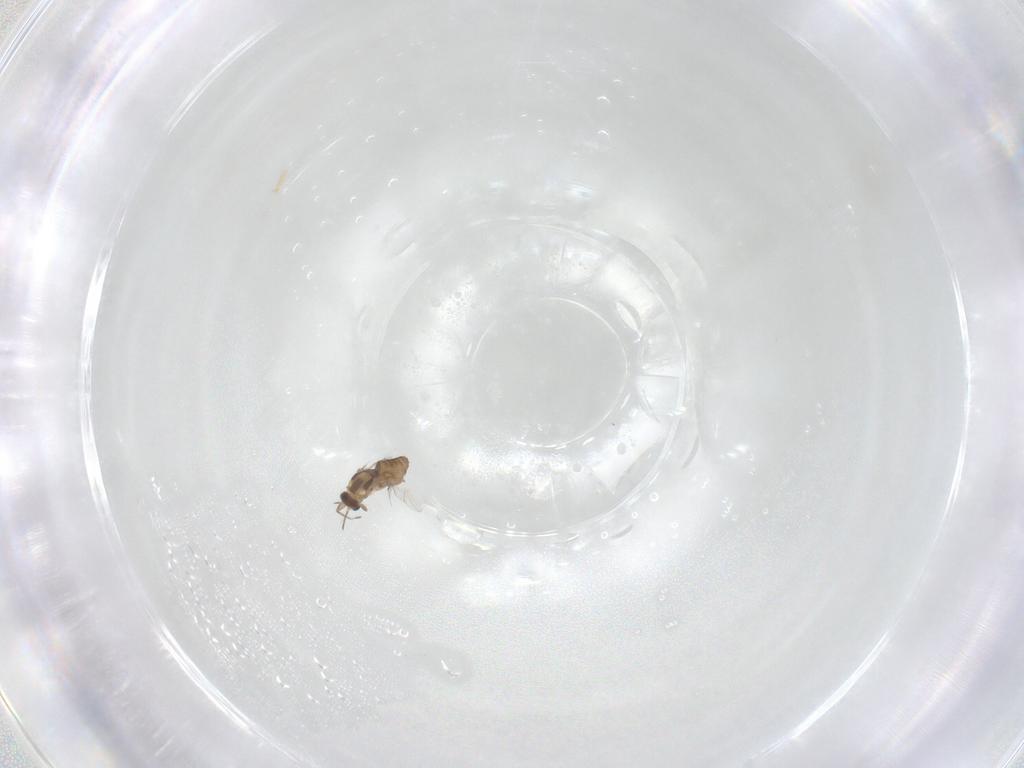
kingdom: Animalia
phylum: Arthropoda
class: Insecta
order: Diptera
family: Chironomidae
